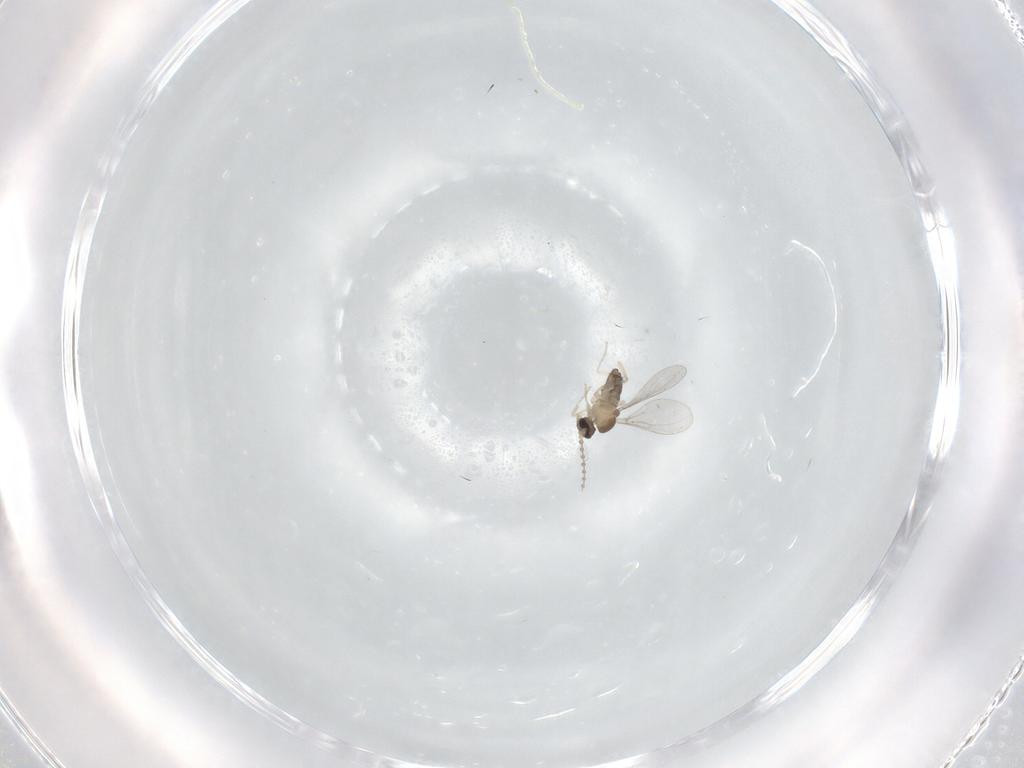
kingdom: Animalia
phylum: Arthropoda
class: Insecta
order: Diptera
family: Cecidomyiidae
